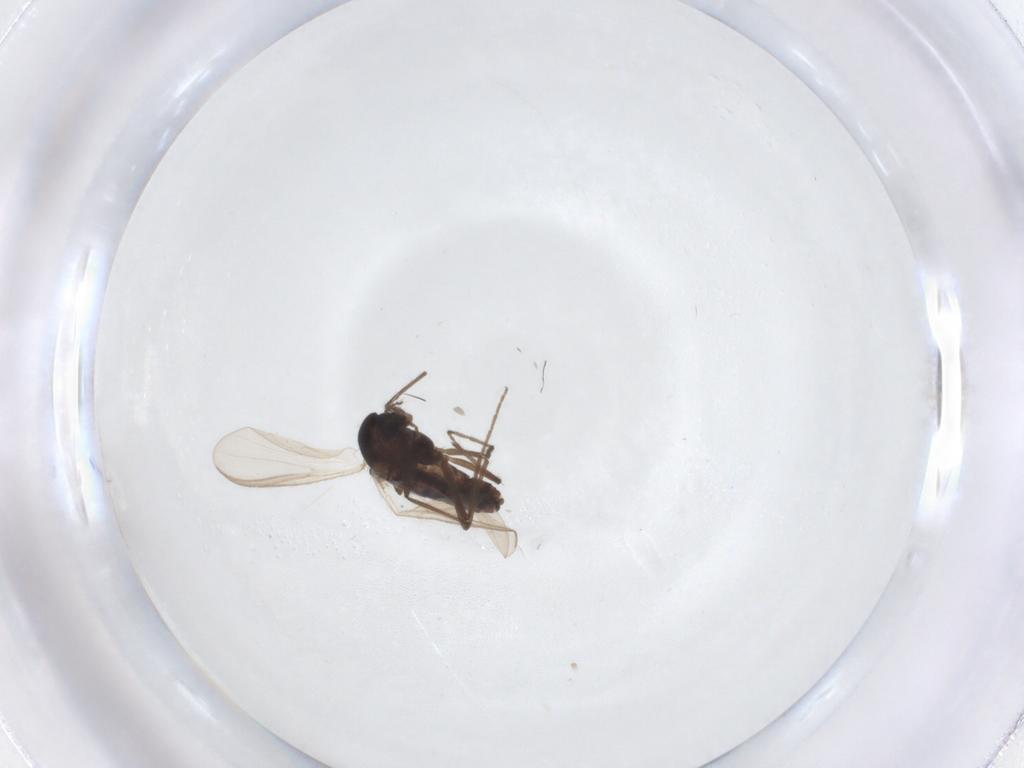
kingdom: Animalia
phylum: Arthropoda
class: Insecta
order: Diptera
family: Chironomidae
